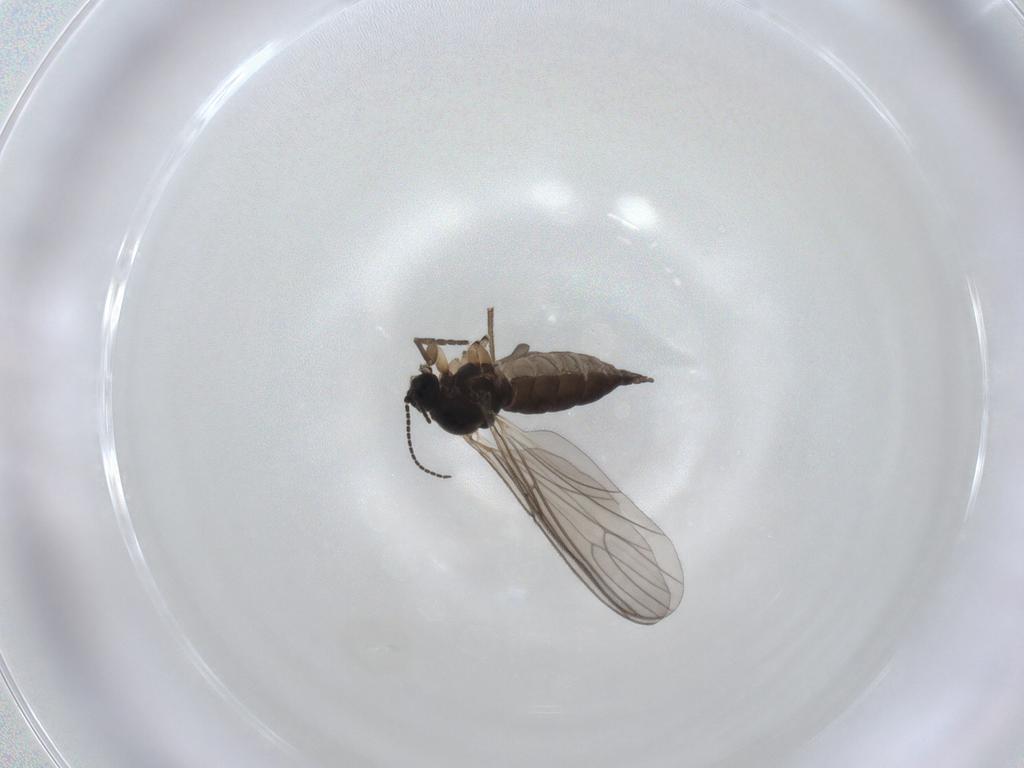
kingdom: Animalia
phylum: Arthropoda
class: Insecta
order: Diptera
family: Sciaridae
